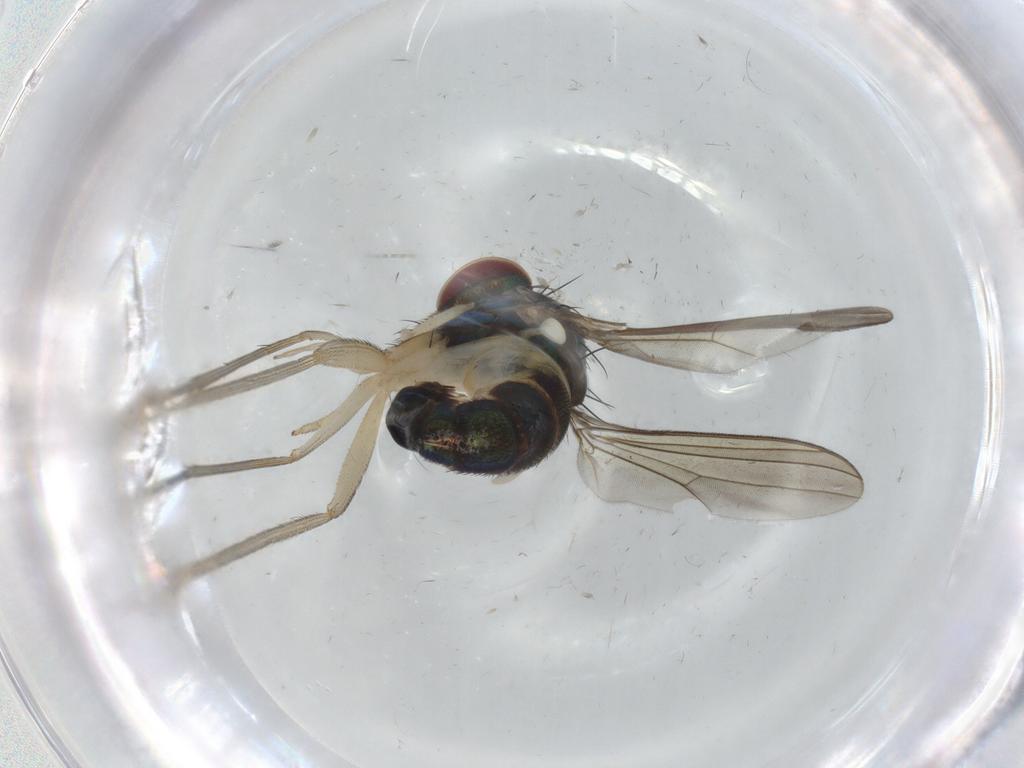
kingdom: Animalia
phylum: Arthropoda
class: Insecta
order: Diptera
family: Dolichopodidae
